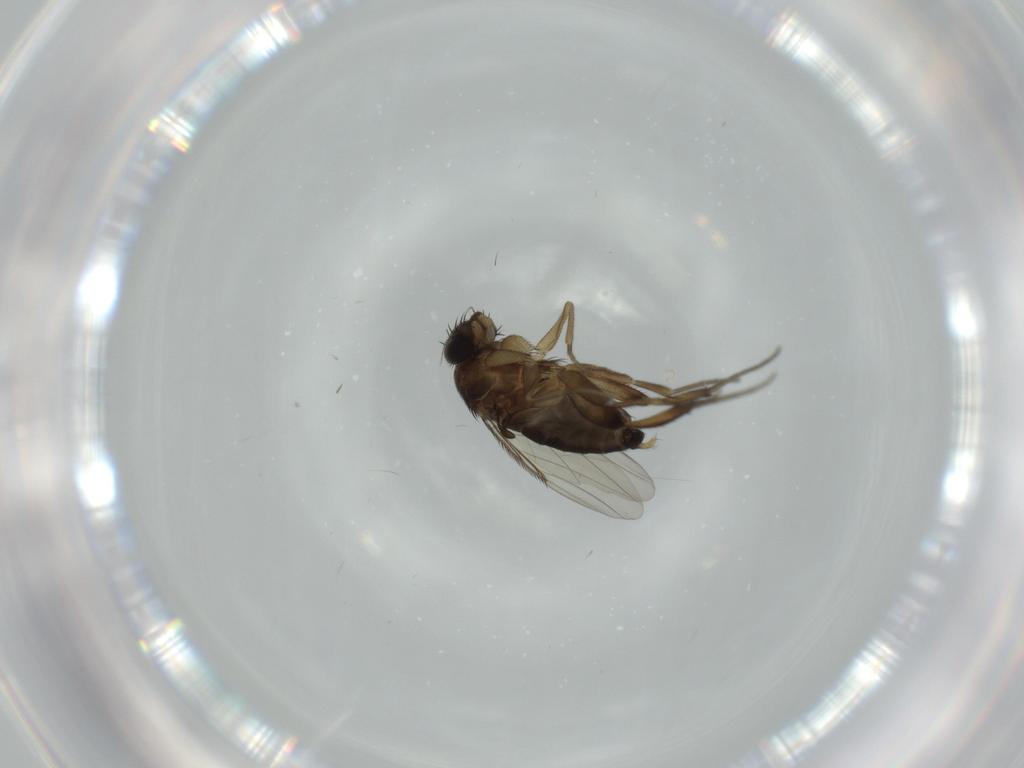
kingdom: Animalia
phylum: Arthropoda
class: Insecta
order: Diptera
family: Phoridae
